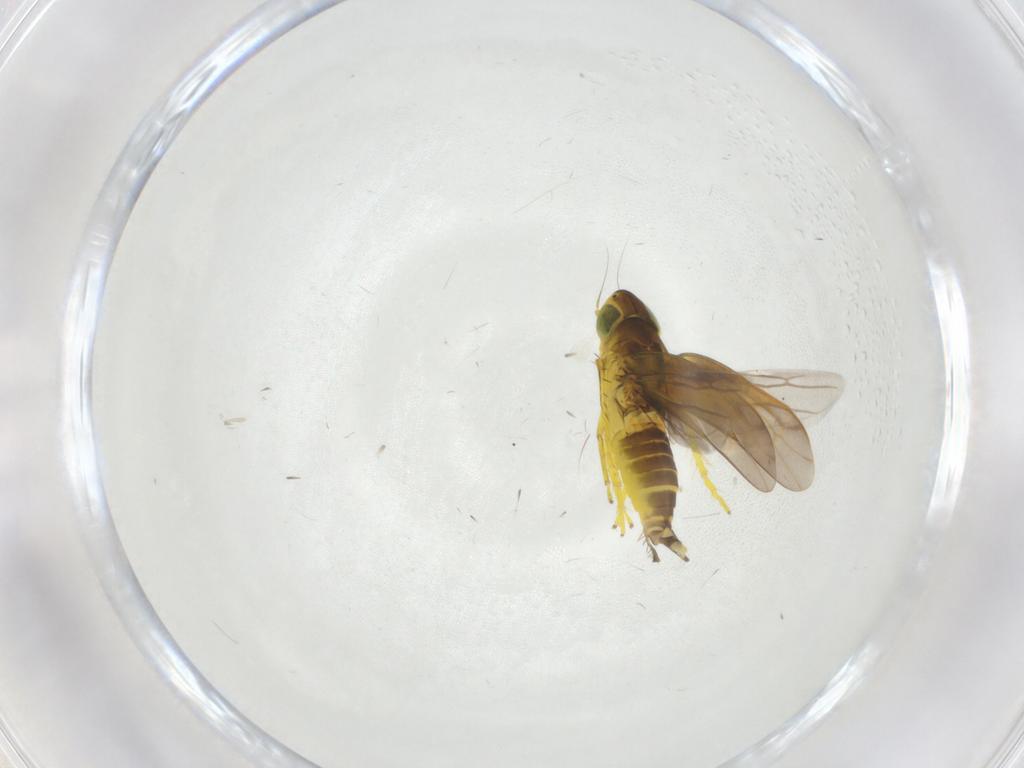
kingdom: Animalia
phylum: Arthropoda
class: Insecta
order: Hemiptera
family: Cicadellidae
